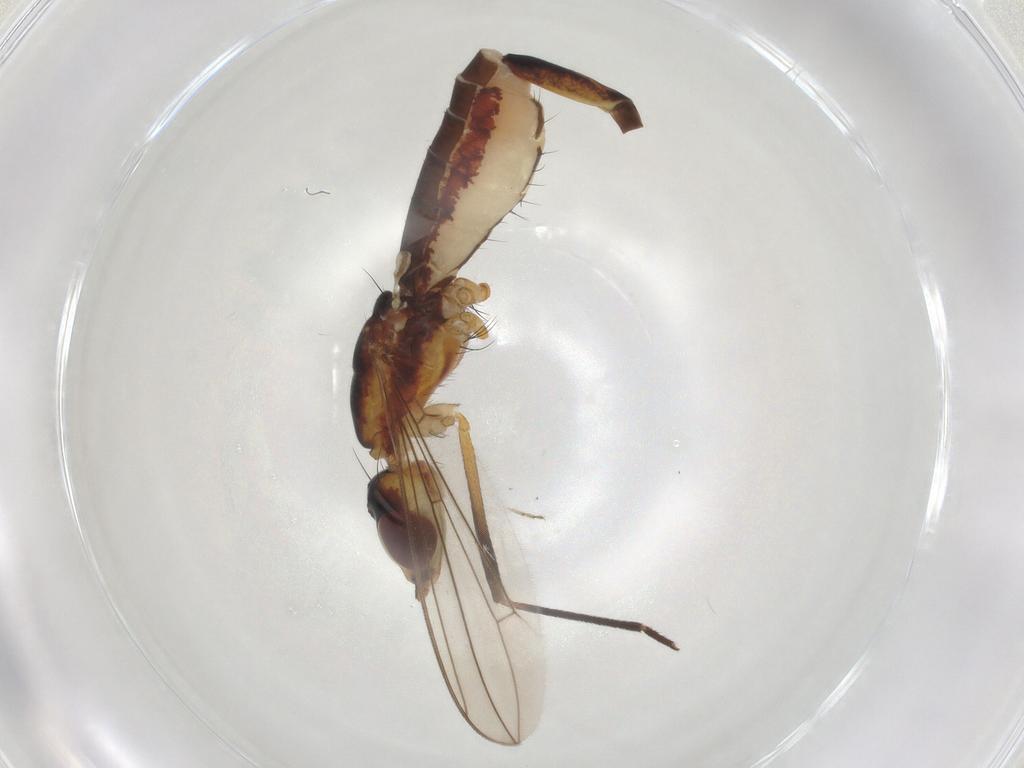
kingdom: Animalia
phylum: Arthropoda
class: Insecta
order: Diptera
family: Micropezidae
